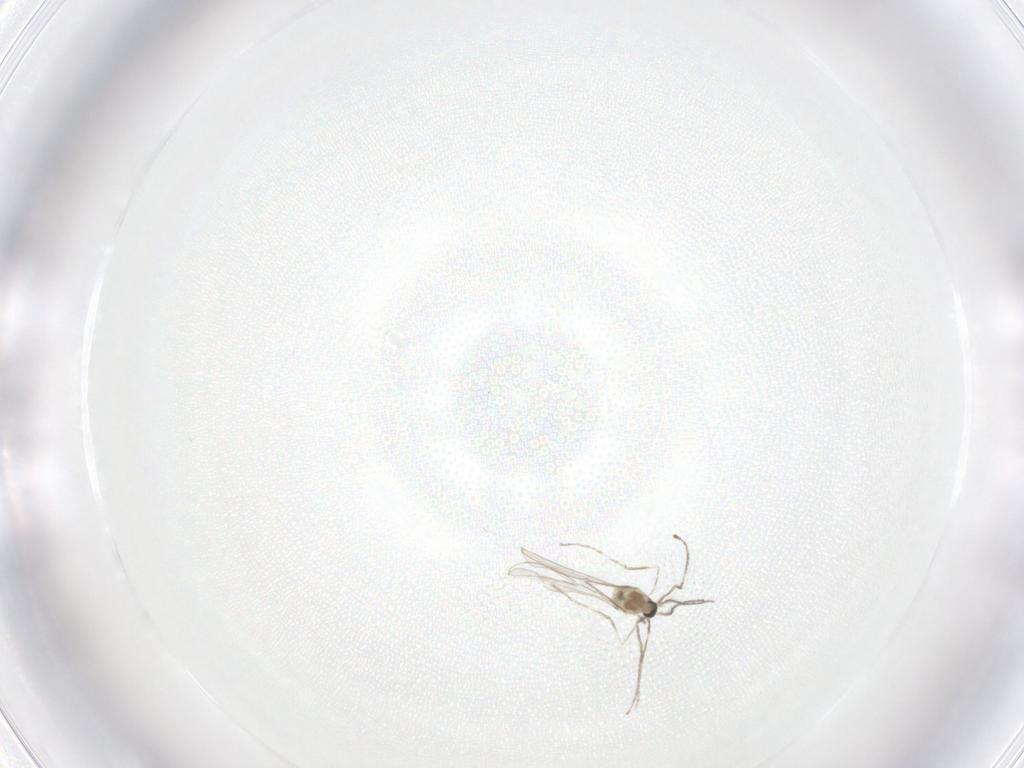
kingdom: Animalia
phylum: Arthropoda
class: Insecta
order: Diptera
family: Cecidomyiidae
